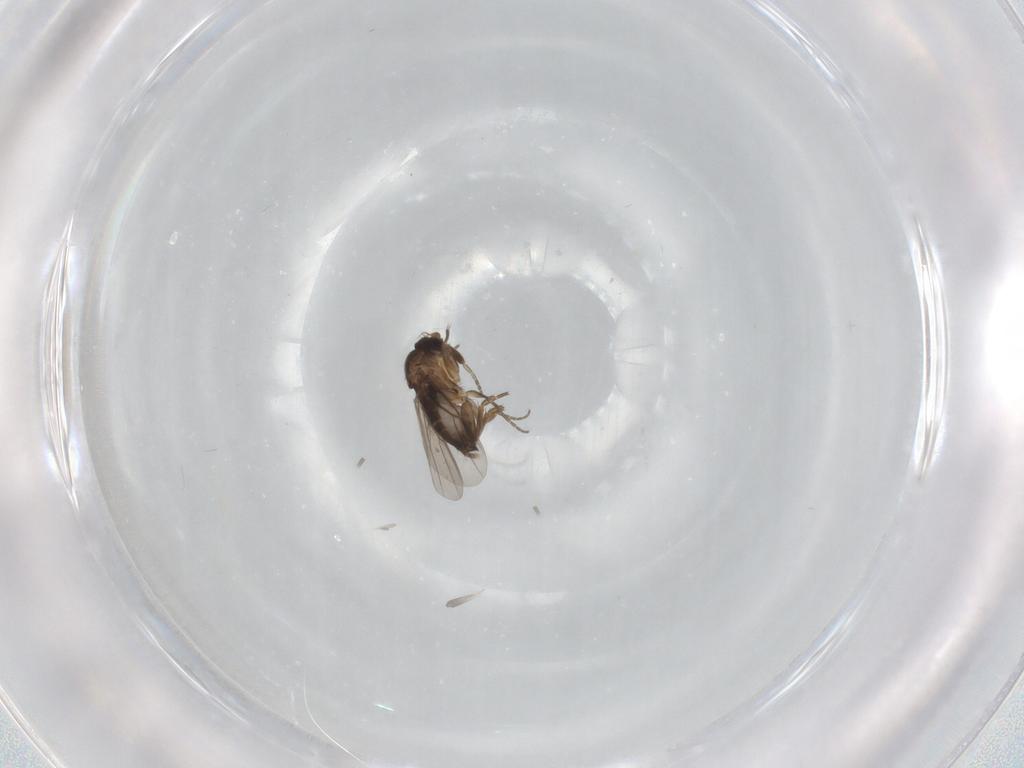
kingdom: Animalia
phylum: Arthropoda
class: Insecta
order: Diptera
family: Phoridae
